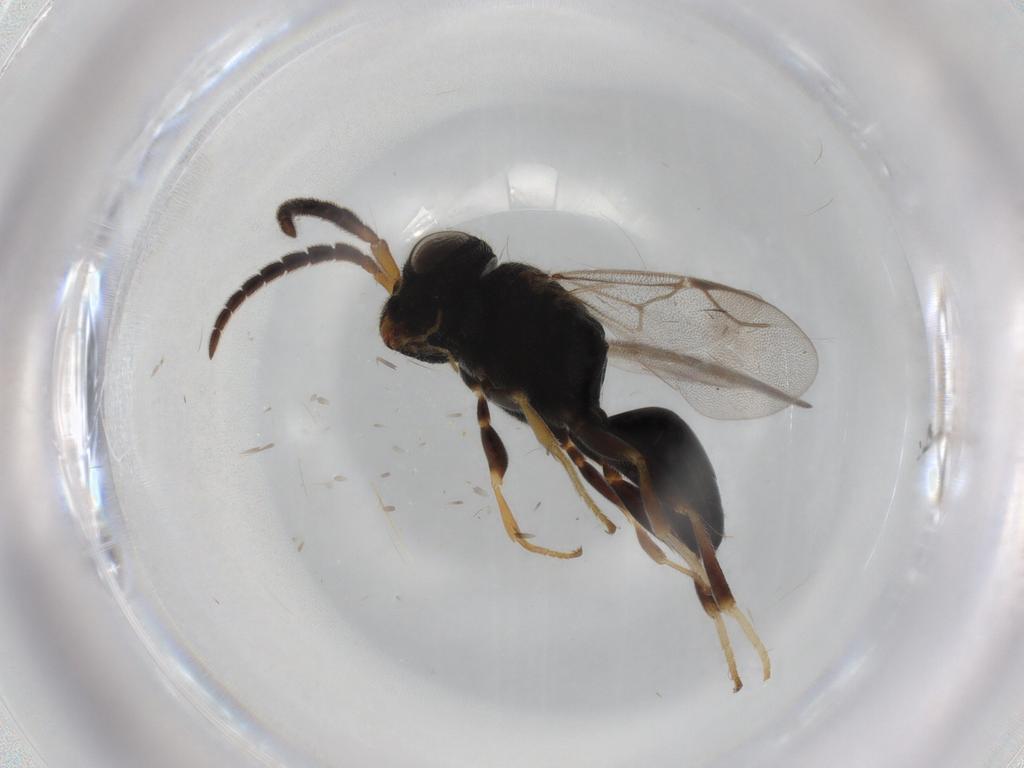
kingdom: Animalia
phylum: Arthropoda
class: Insecta
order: Hymenoptera
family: Dryinidae
